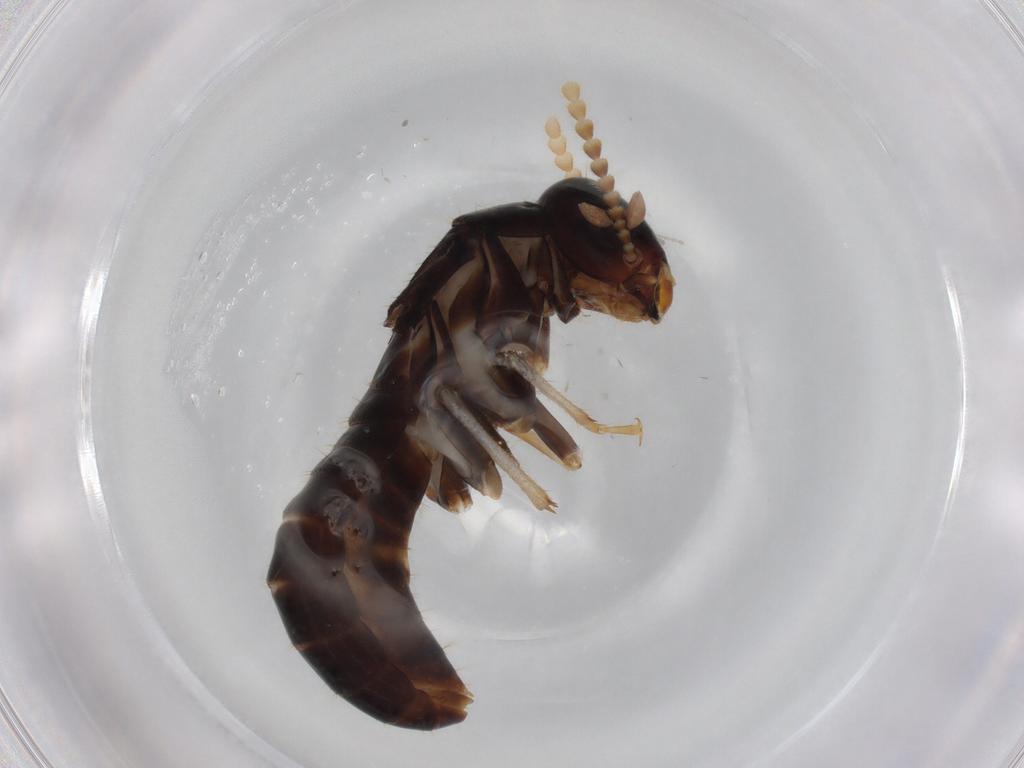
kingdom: Animalia
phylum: Arthropoda
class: Insecta
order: Blattodea
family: Kalotermitidae
